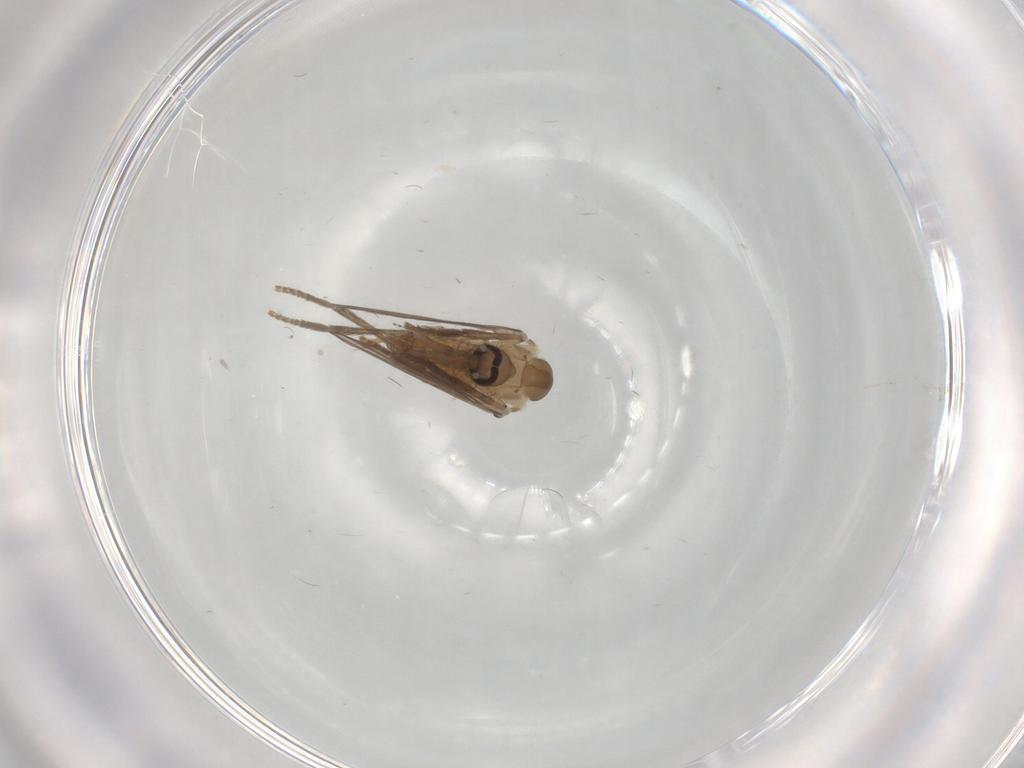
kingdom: Animalia
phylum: Arthropoda
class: Insecta
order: Diptera
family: Psychodidae
